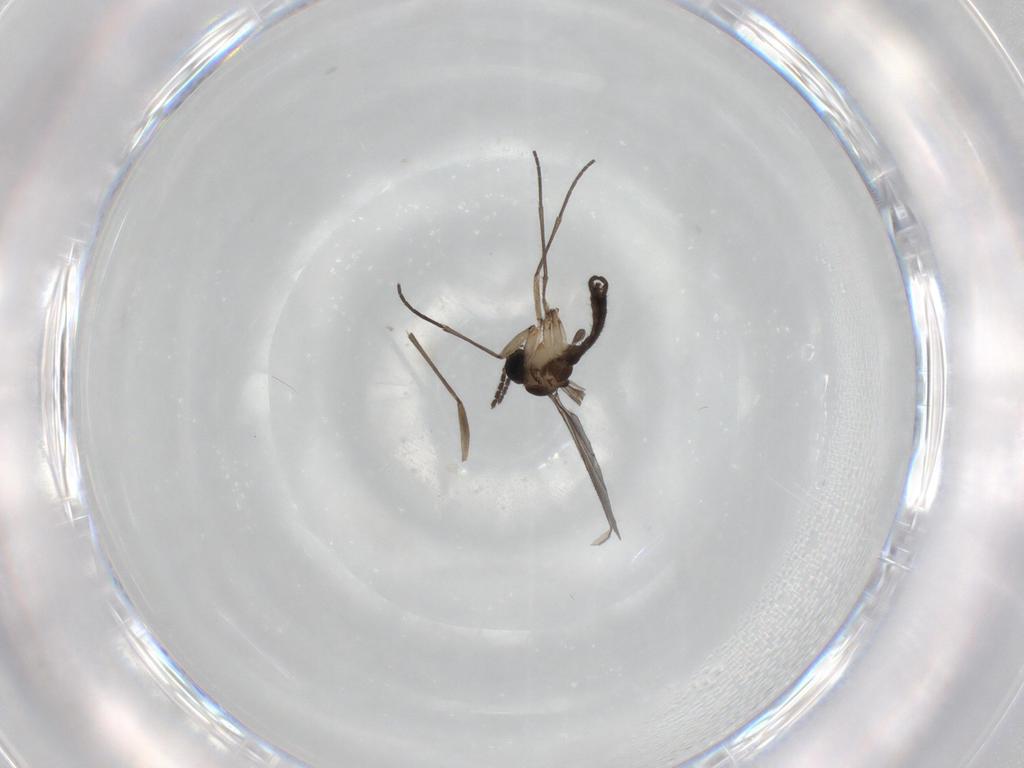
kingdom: Animalia
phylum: Arthropoda
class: Insecta
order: Diptera
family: Sciaridae
